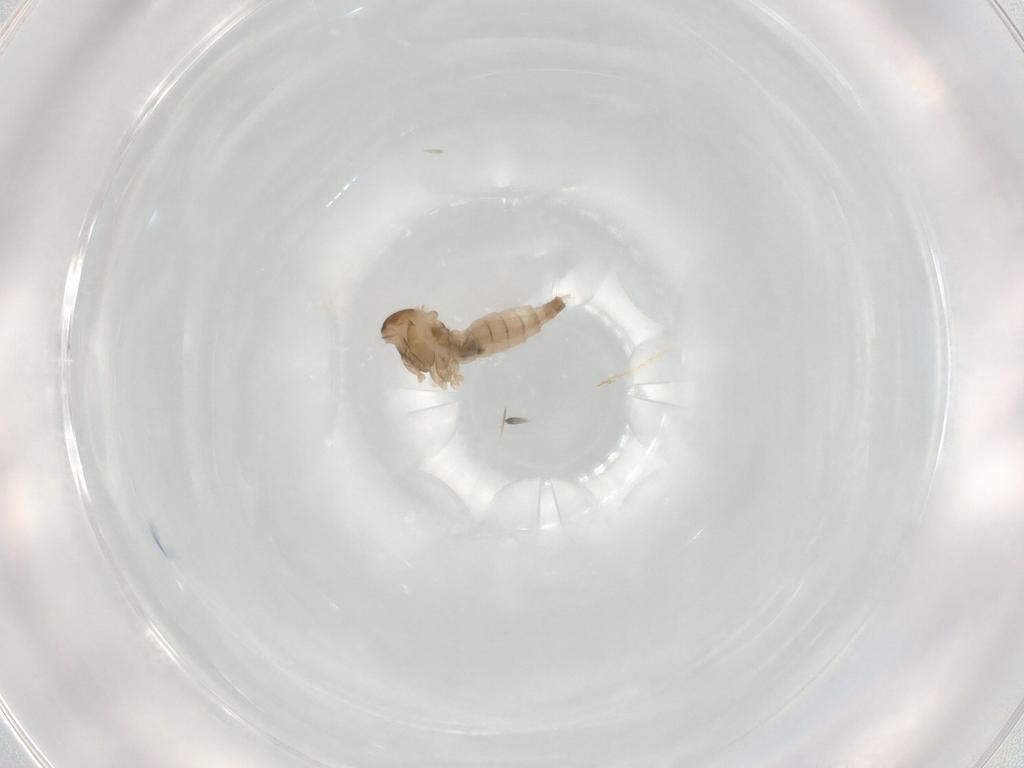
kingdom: Animalia
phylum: Arthropoda
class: Insecta
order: Diptera
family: Cecidomyiidae
